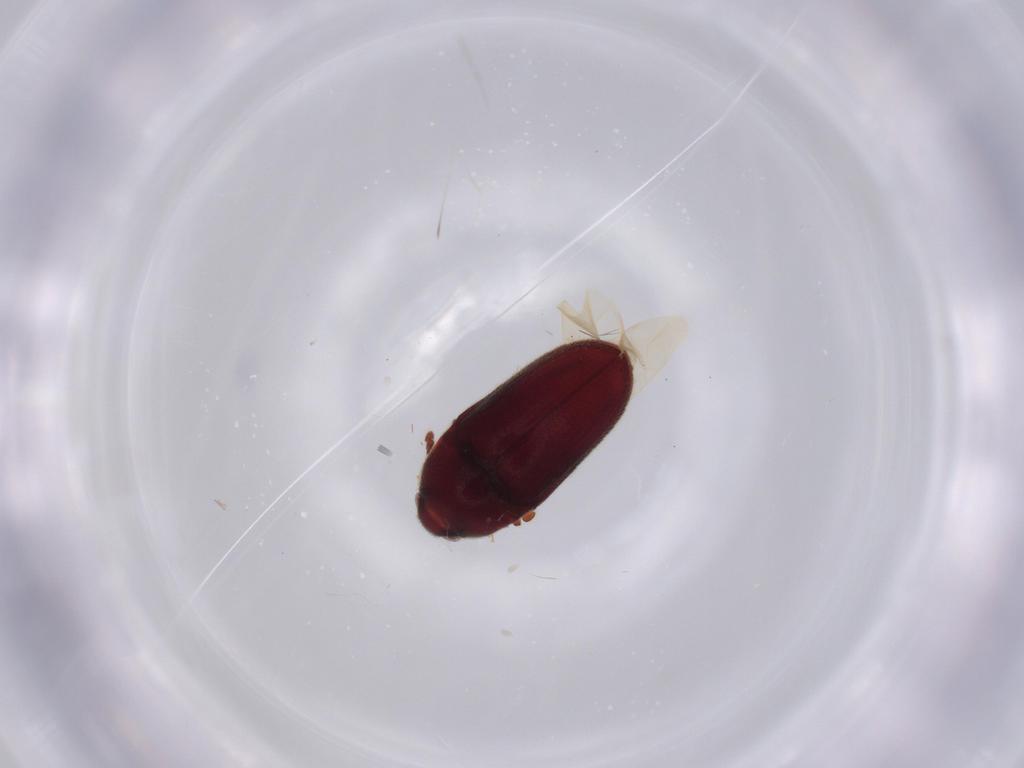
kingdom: Animalia
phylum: Arthropoda
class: Insecta
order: Coleoptera
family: Throscidae
